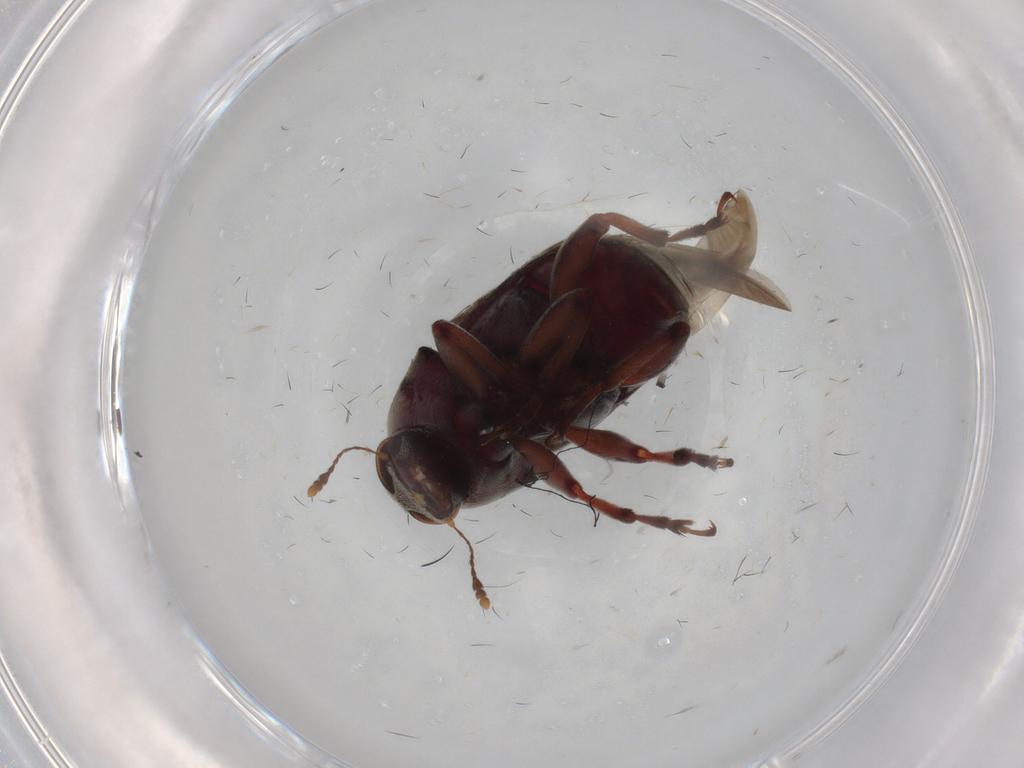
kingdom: Animalia
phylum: Arthropoda
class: Insecta
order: Coleoptera
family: Anthribidae
